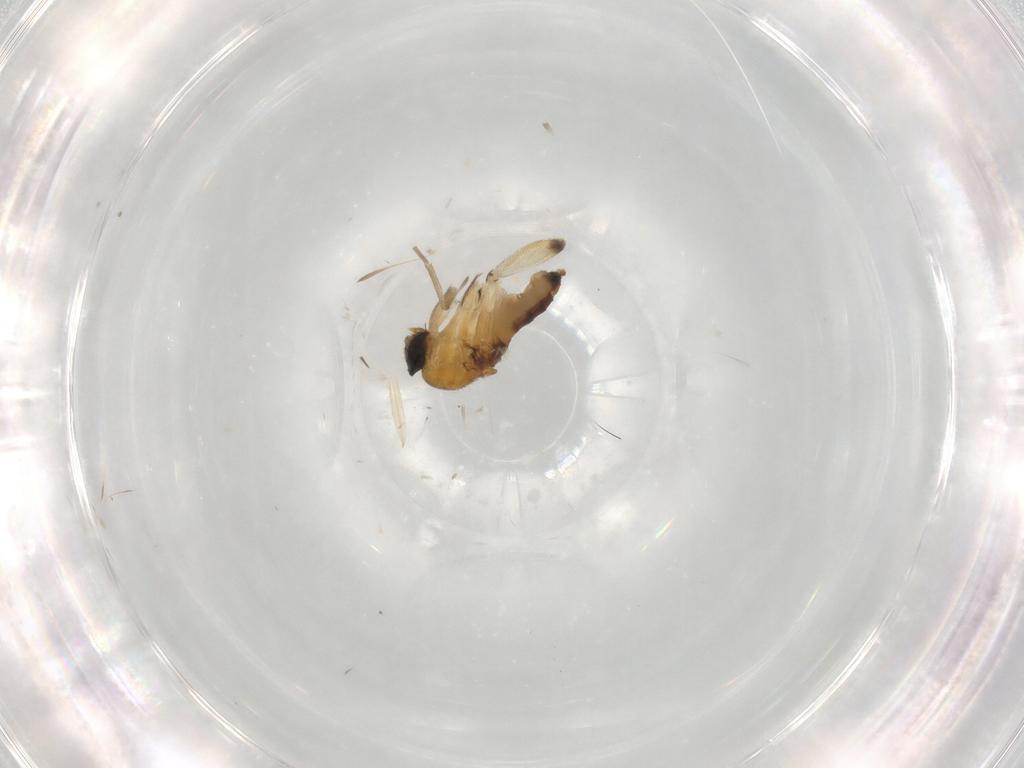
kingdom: Animalia
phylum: Arthropoda
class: Insecta
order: Diptera
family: Phoridae
